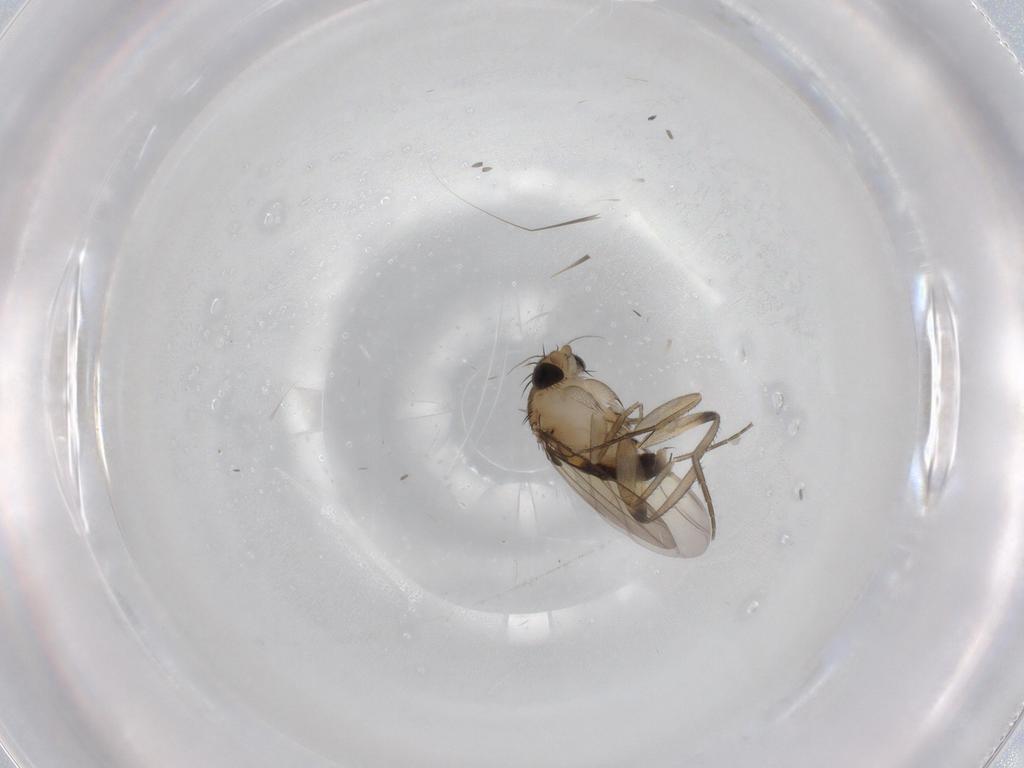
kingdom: Animalia
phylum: Arthropoda
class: Insecta
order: Diptera
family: Phoridae
